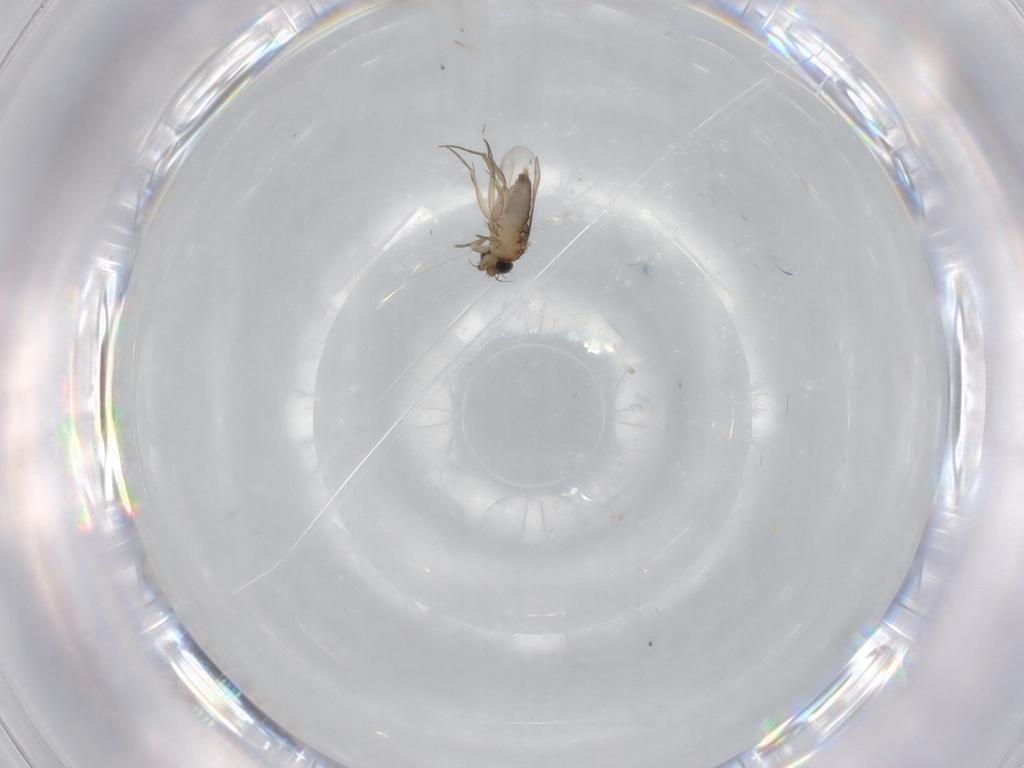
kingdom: Animalia
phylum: Arthropoda
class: Insecta
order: Diptera
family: Phoridae
